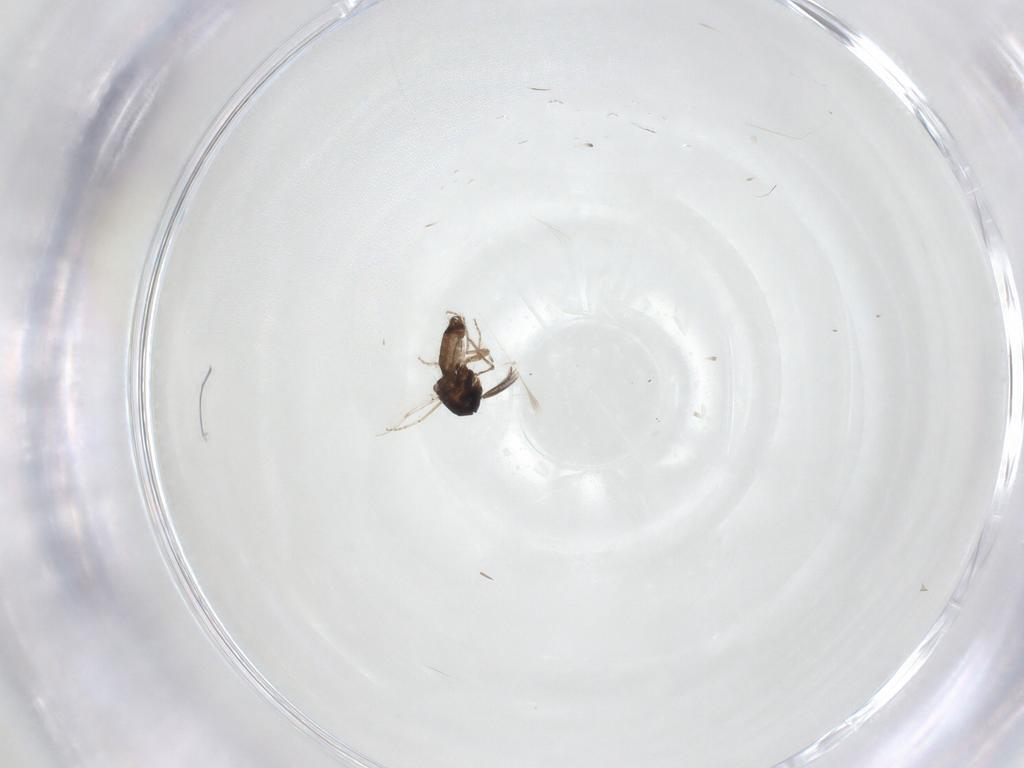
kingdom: Animalia
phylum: Arthropoda
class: Insecta
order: Diptera
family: Ceratopogonidae
